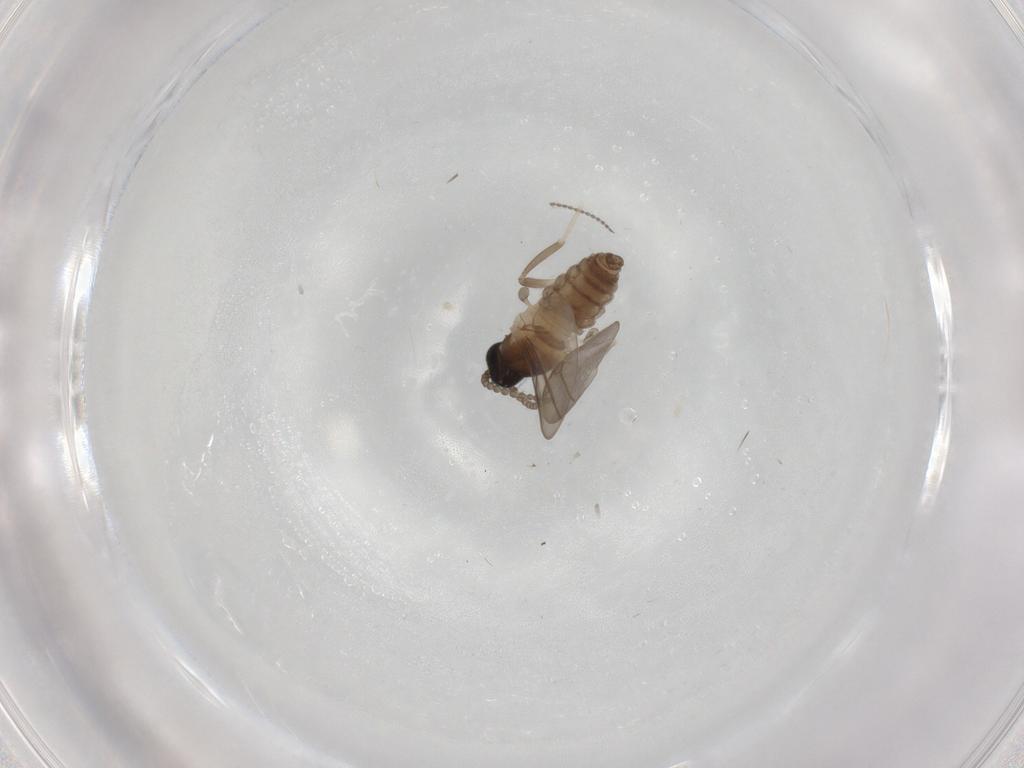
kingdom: Animalia
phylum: Arthropoda
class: Insecta
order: Diptera
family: Cecidomyiidae
